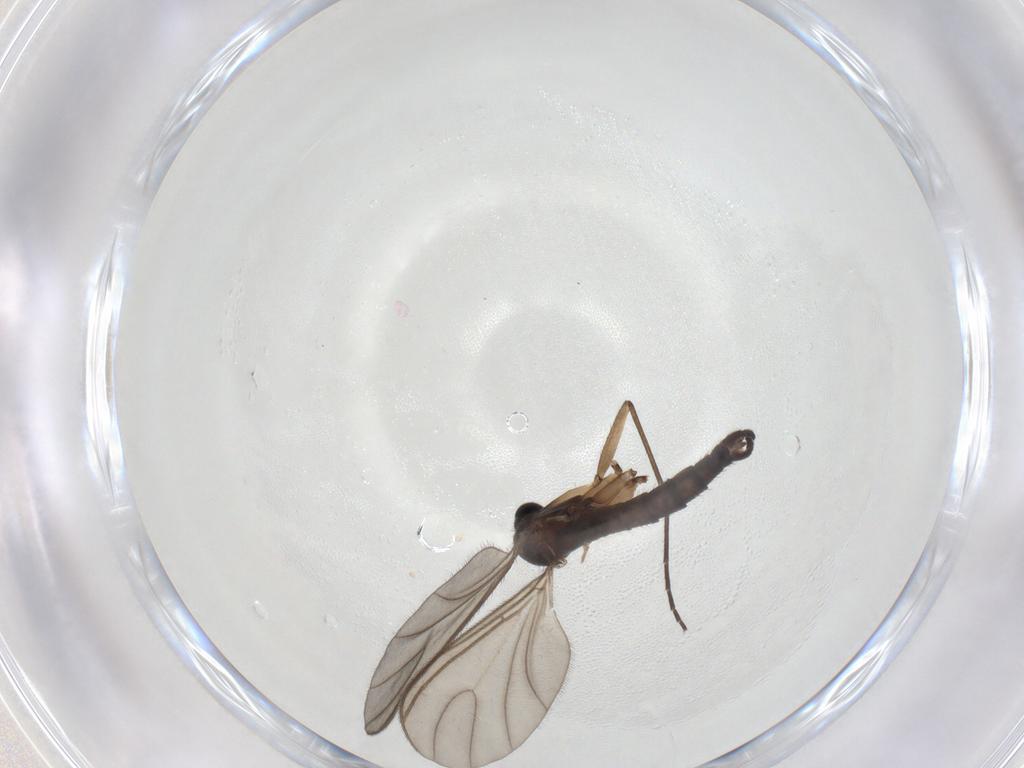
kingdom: Animalia
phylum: Arthropoda
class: Insecta
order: Diptera
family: Sciaridae
